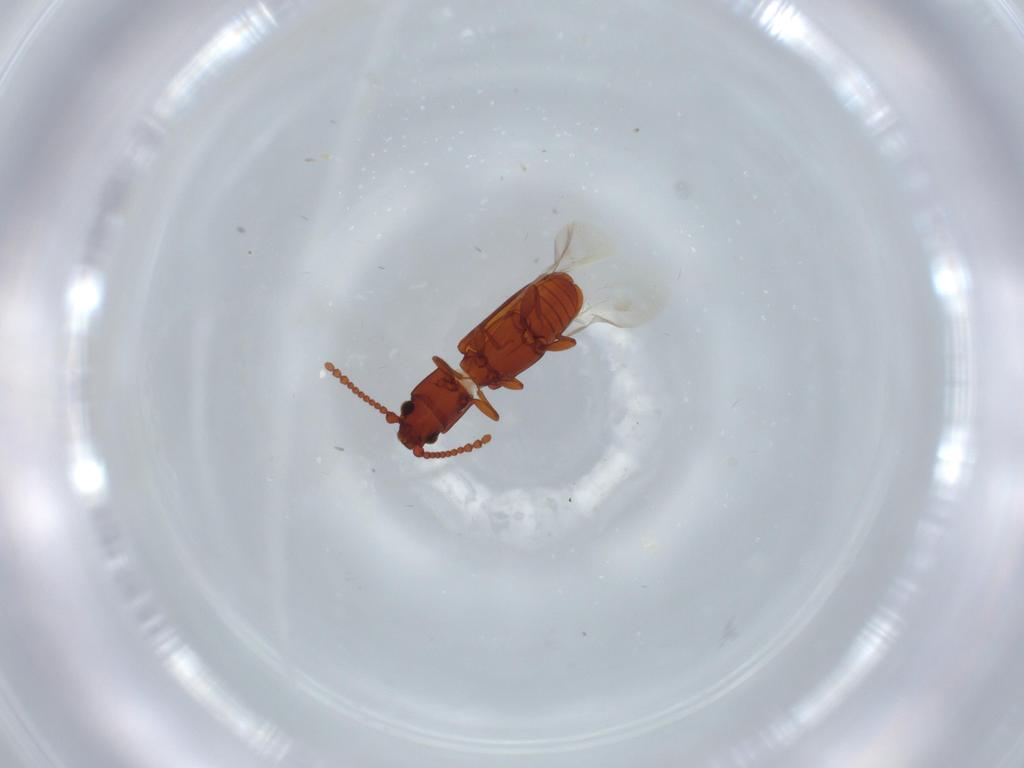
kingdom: Animalia
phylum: Arthropoda
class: Insecta
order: Coleoptera
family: Laemophloeidae
